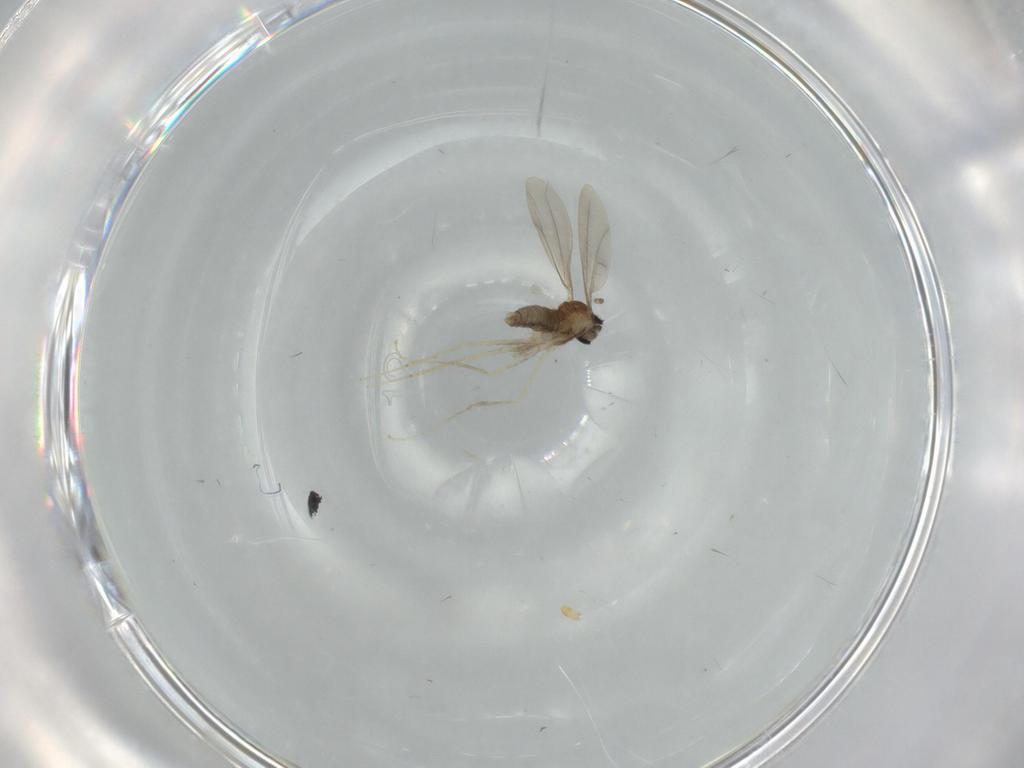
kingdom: Animalia
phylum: Arthropoda
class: Insecta
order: Diptera
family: Cecidomyiidae
